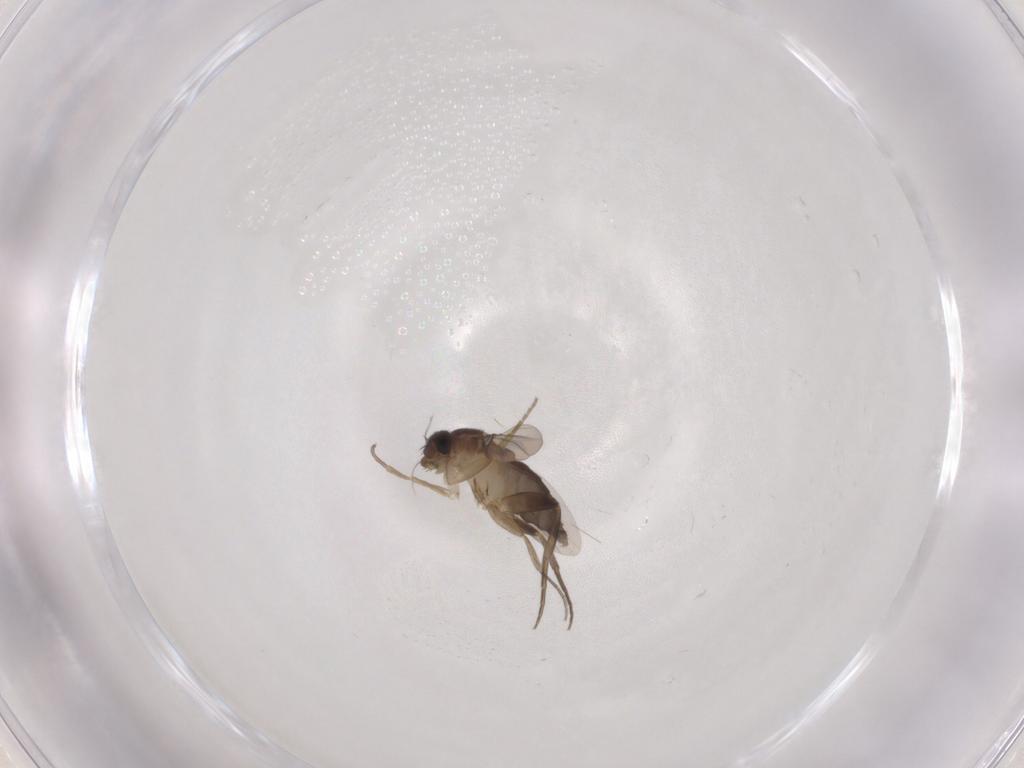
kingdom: Animalia
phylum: Arthropoda
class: Insecta
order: Diptera
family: Phoridae
